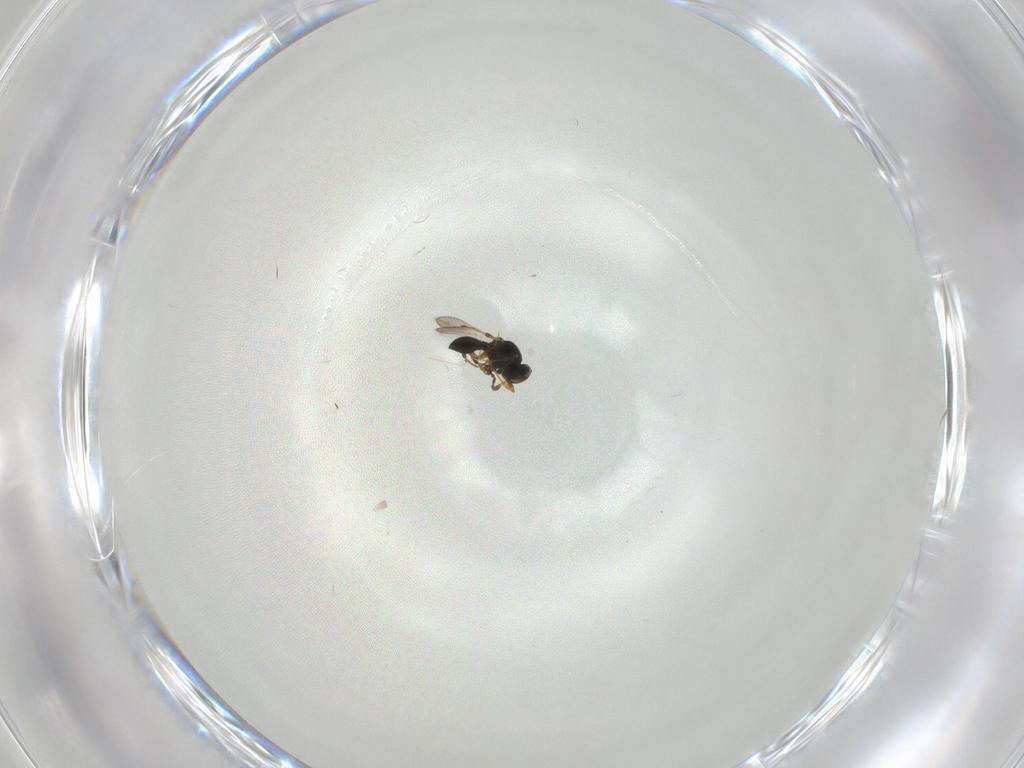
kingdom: Animalia
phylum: Arthropoda
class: Insecta
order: Hymenoptera
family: Platygastridae
